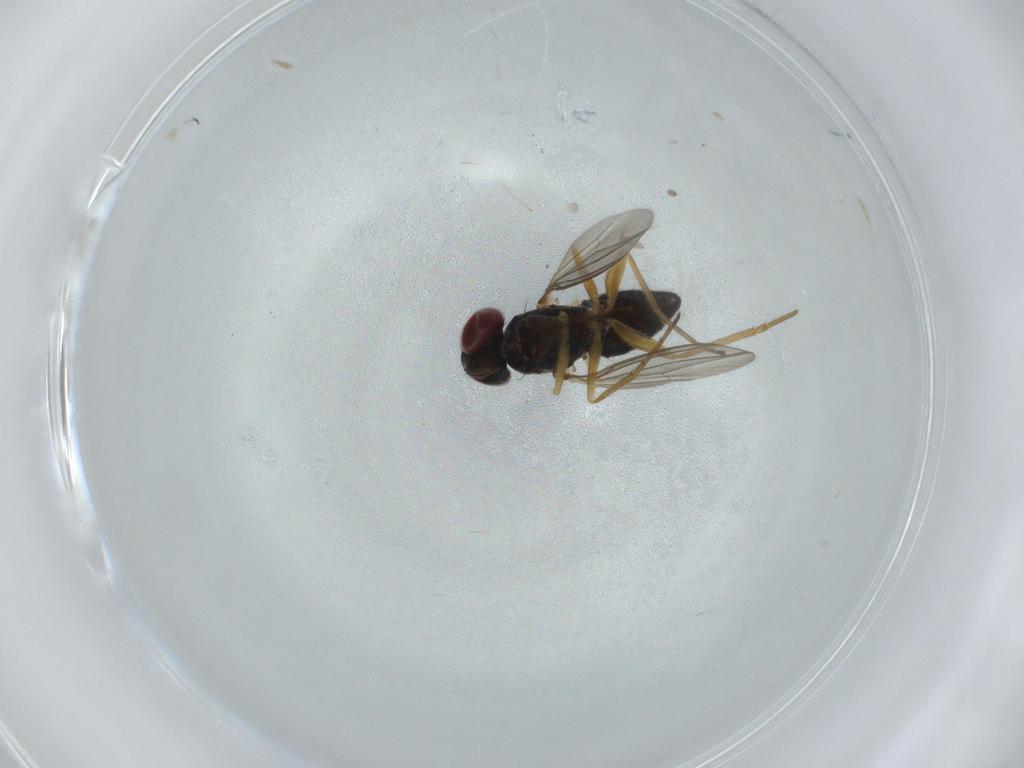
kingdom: Animalia
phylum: Arthropoda
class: Insecta
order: Diptera
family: Dolichopodidae
